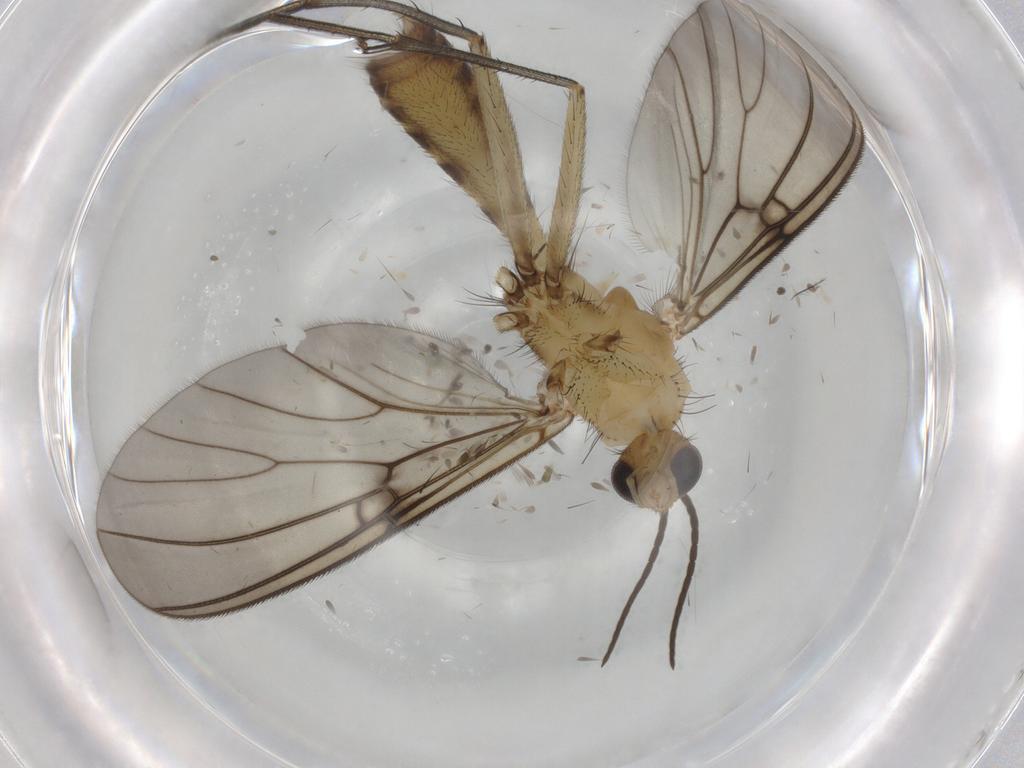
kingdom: Animalia
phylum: Arthropoda
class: Insecta
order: Diptera
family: Mycetophilidae
